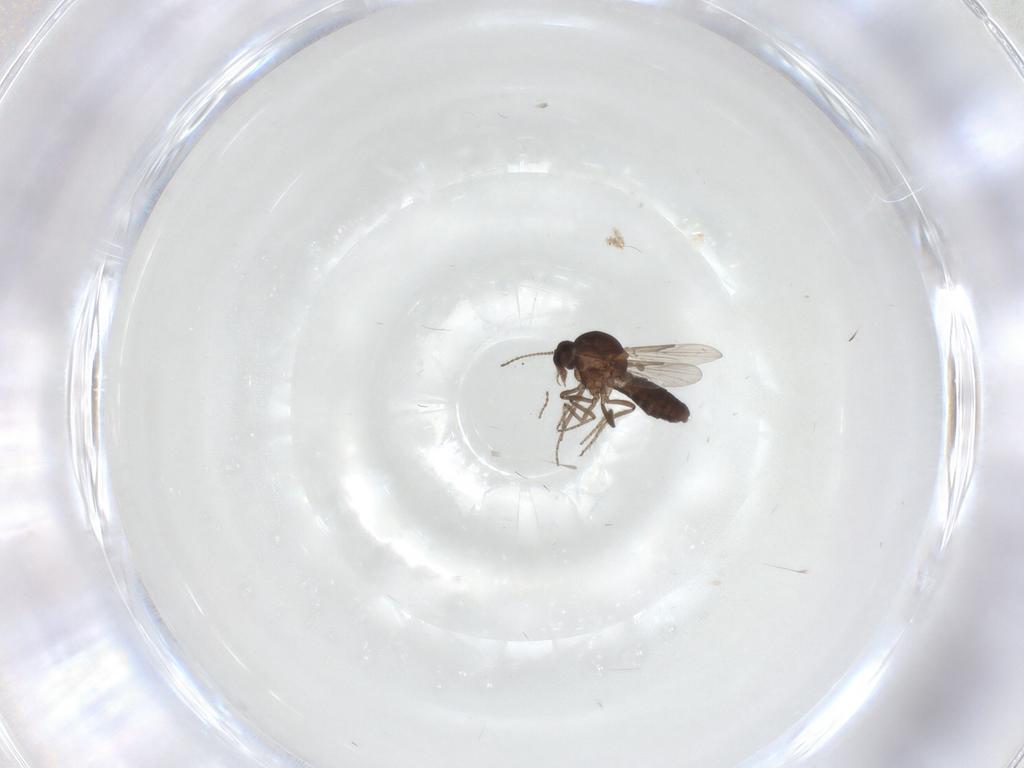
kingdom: Animalia
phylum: Arthropoda
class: Insecta
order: Diptera
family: Ceratopogonidae
